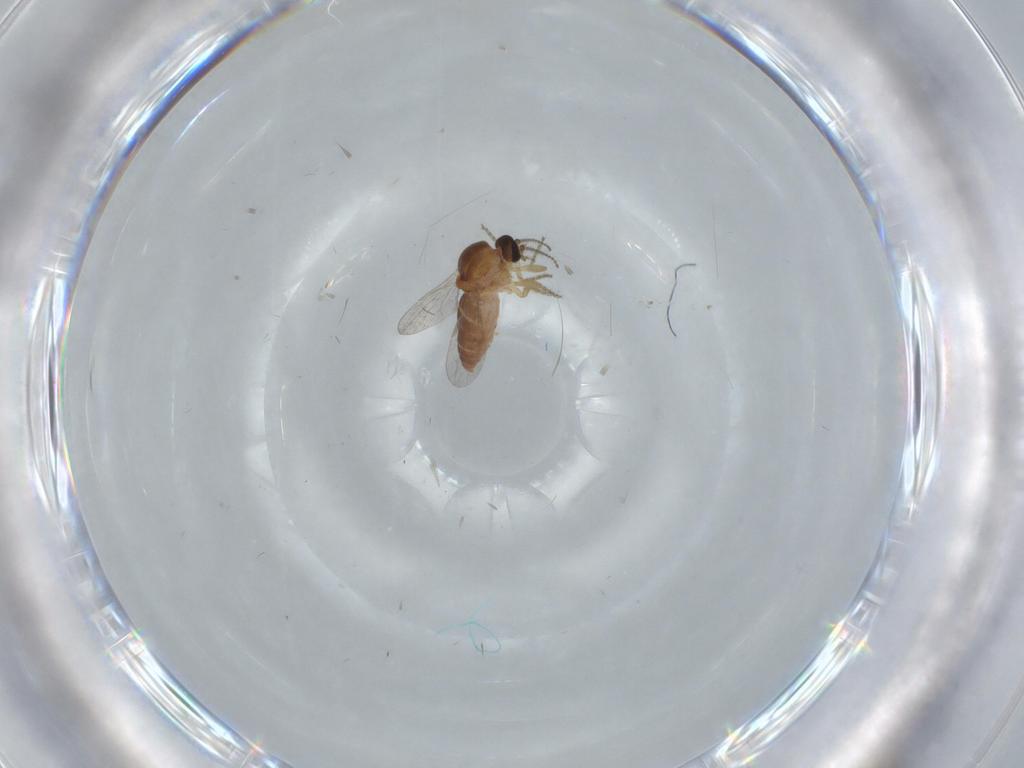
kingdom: Animalia
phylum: Arthropoda
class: Insecta
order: Diptera
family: Ceratopogonidae
